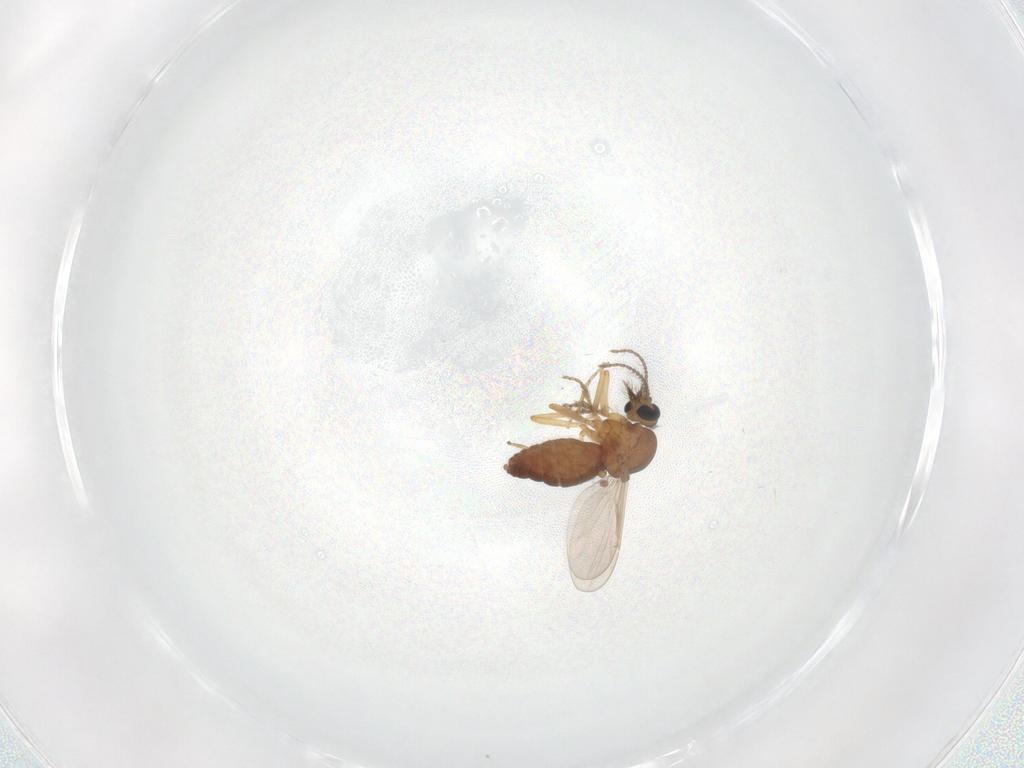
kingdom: Animalia
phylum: Arthropoda
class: Insecta
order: Diptera
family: Ceratopogonidae
